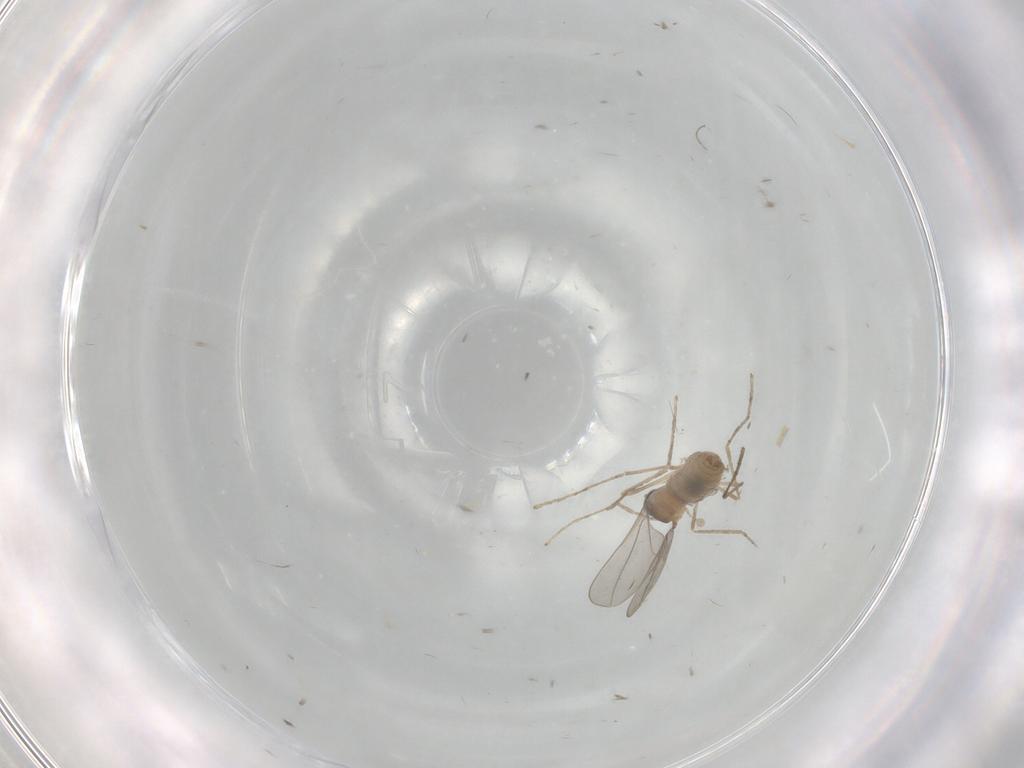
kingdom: Animalia
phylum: Arthropoda
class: Insecta
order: Diptera
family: Cecidomyiidae
